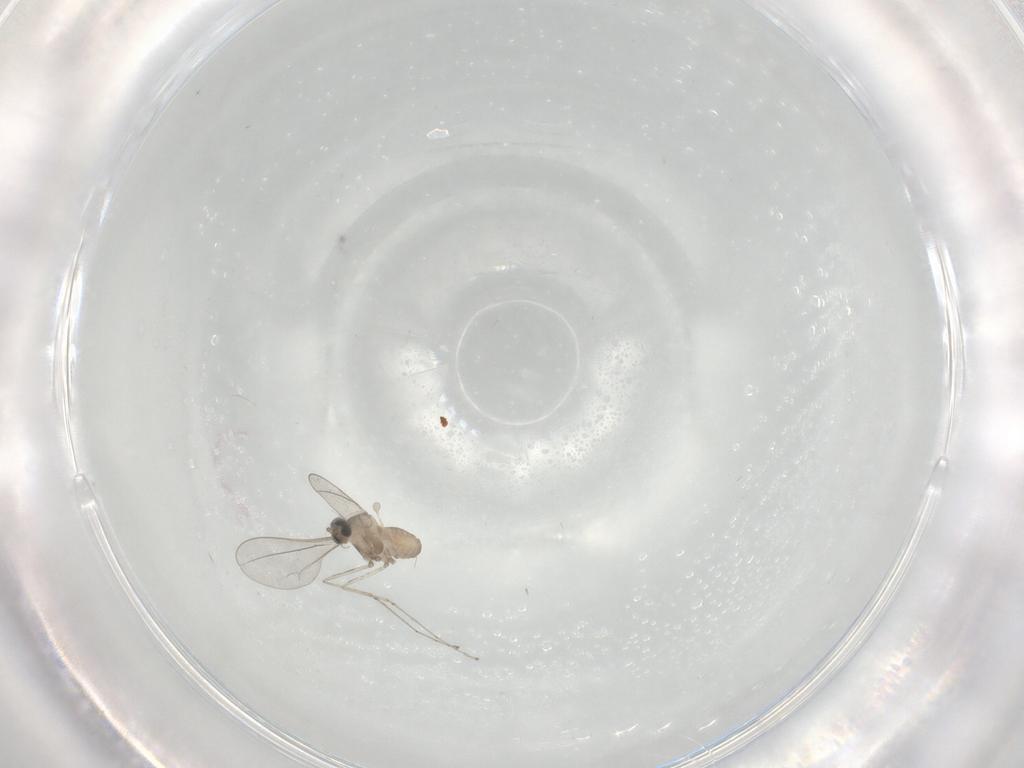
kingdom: Animalia
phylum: Arthropoda
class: Insecta
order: Diptera
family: Cecidomyiidae
